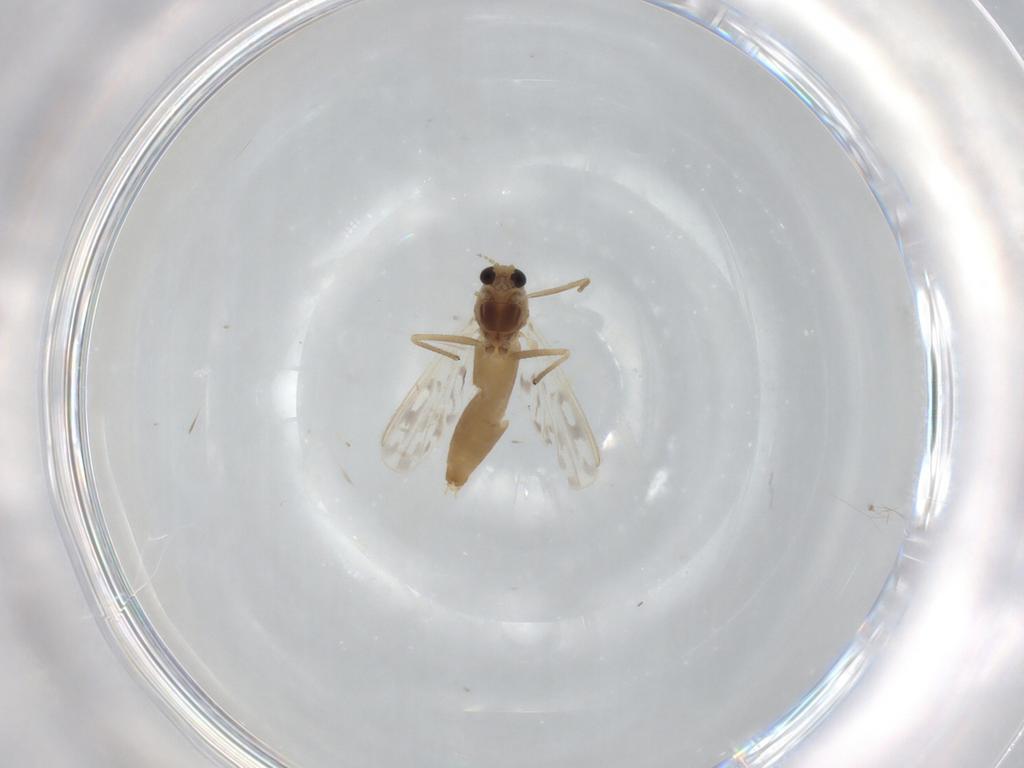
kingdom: Animalia
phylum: Arthropoda
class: Insecta
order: Diptera
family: Chironomidae
